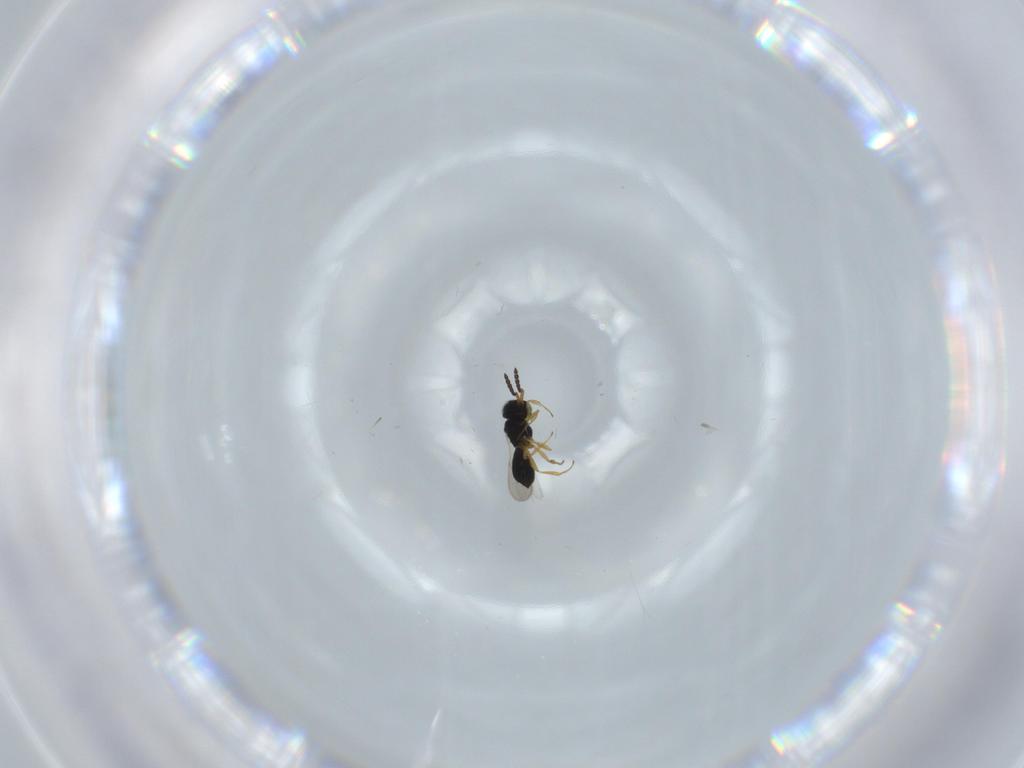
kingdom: Animalia
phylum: Arthropoda
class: Insecta
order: Hymenoptera
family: Scelionidae
